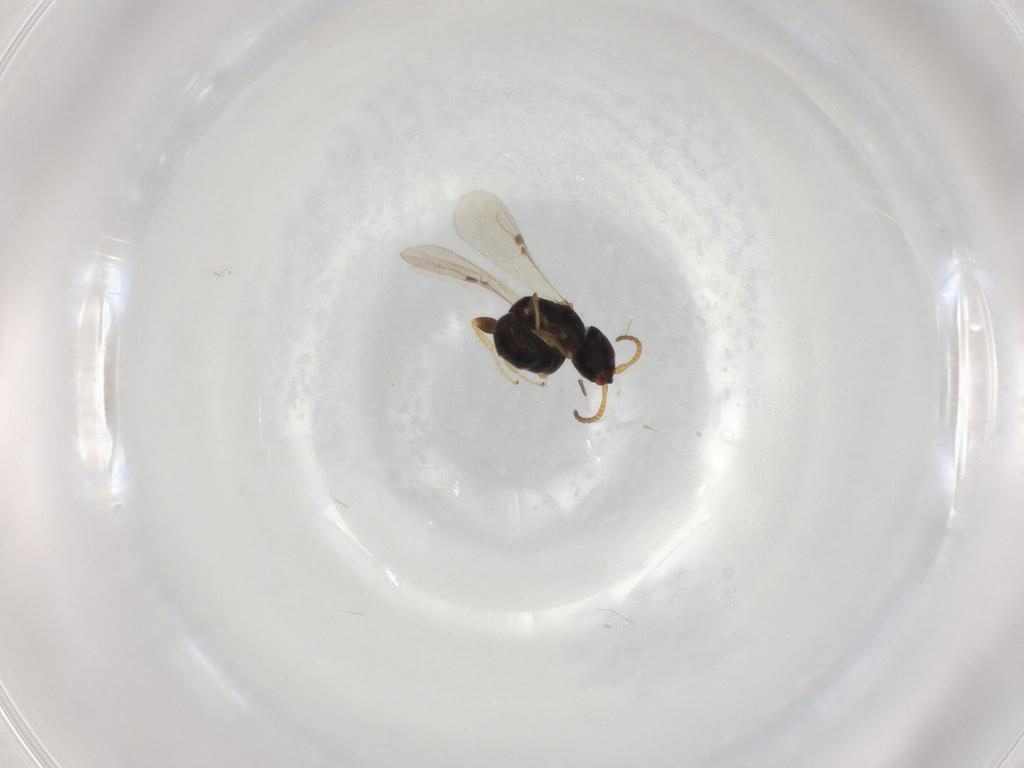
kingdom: Animalia
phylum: Arthropoda
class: Insecta
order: Hymenoptera
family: Bethylidae
